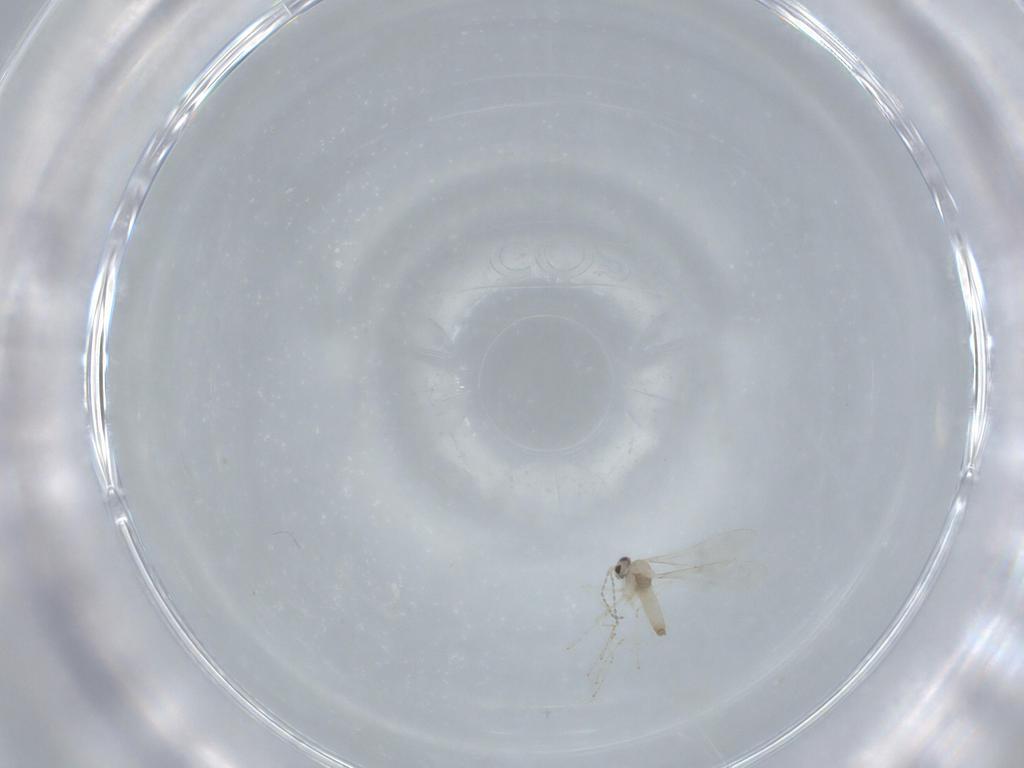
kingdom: Animalia
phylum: Arthropoda
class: Insecta
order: Diptera
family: Cecidomyiidae
